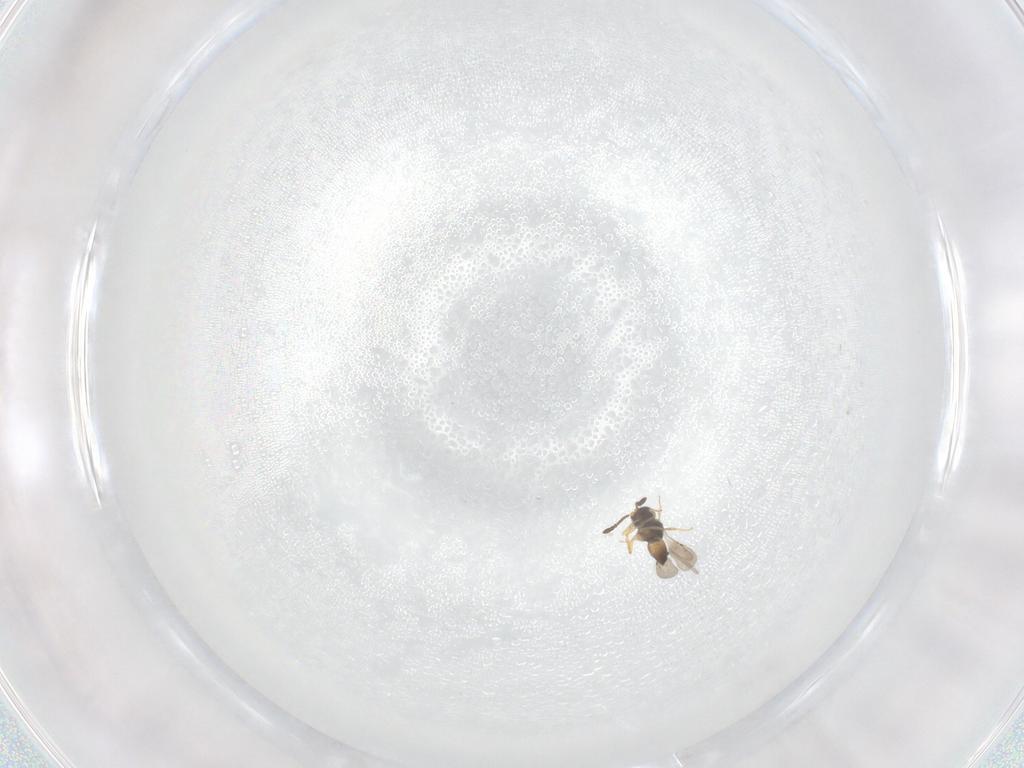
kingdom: Animalia
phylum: Arthropoda
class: Insecta
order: Hymenoptera
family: Platygastridae
